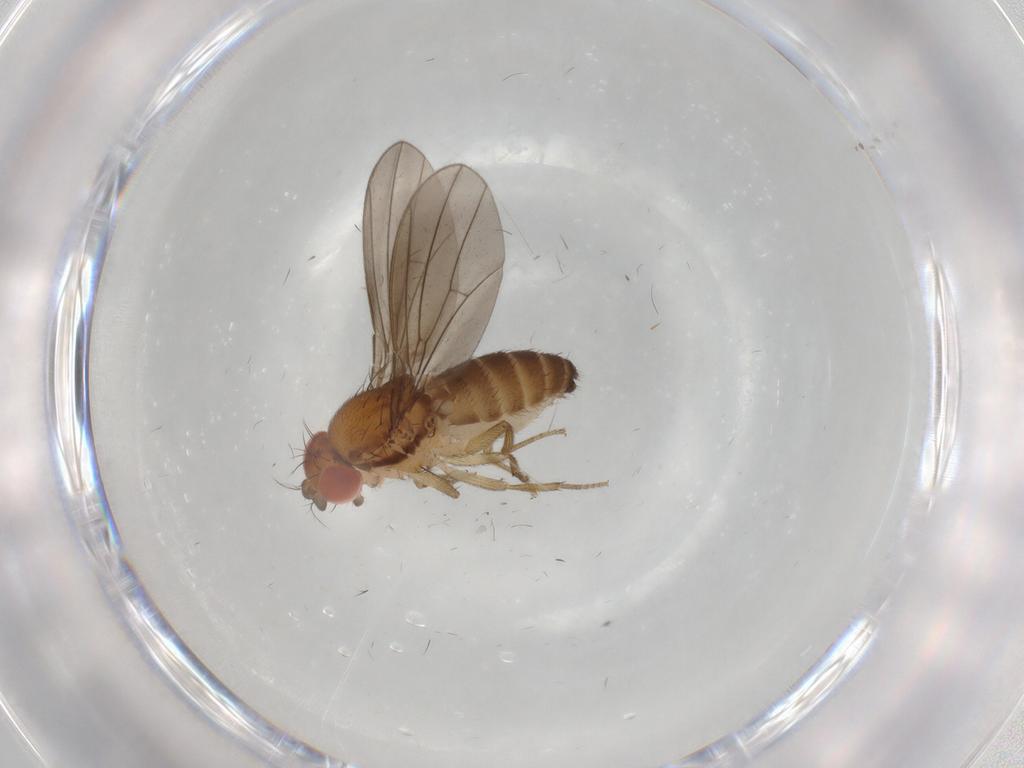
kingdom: Animalia
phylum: Arthropoda
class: Insecta
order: Diptera
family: Drosophilidae
